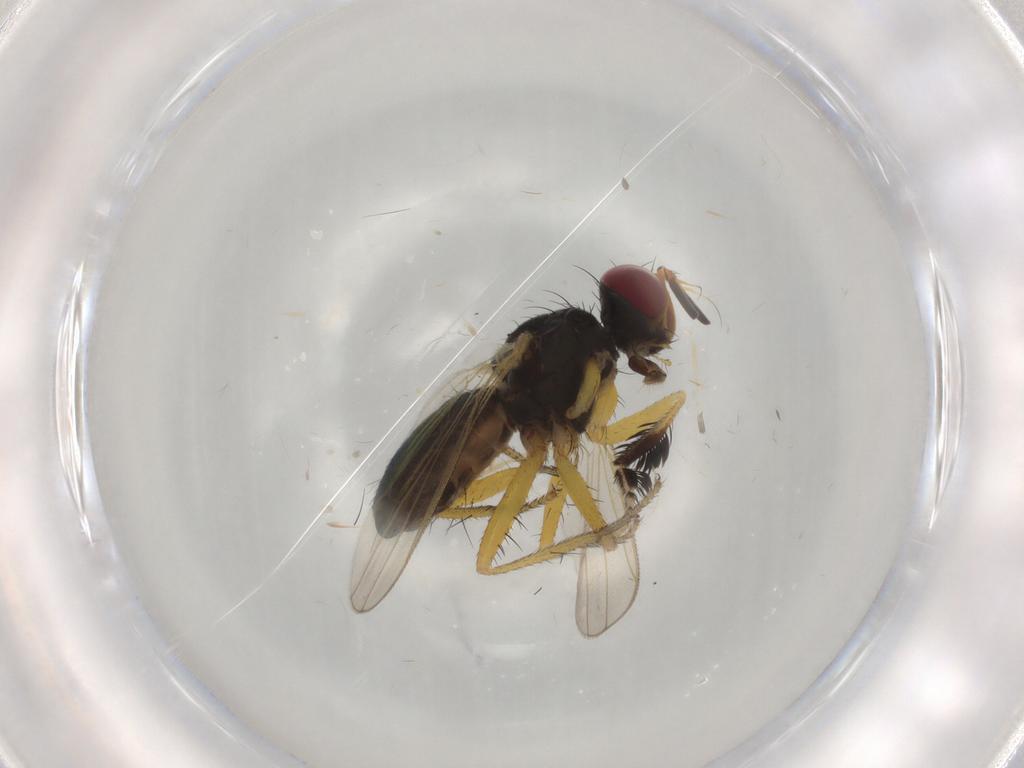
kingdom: Animalia
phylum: Arthropoda
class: Insecta
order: Diptera
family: Muscidae
